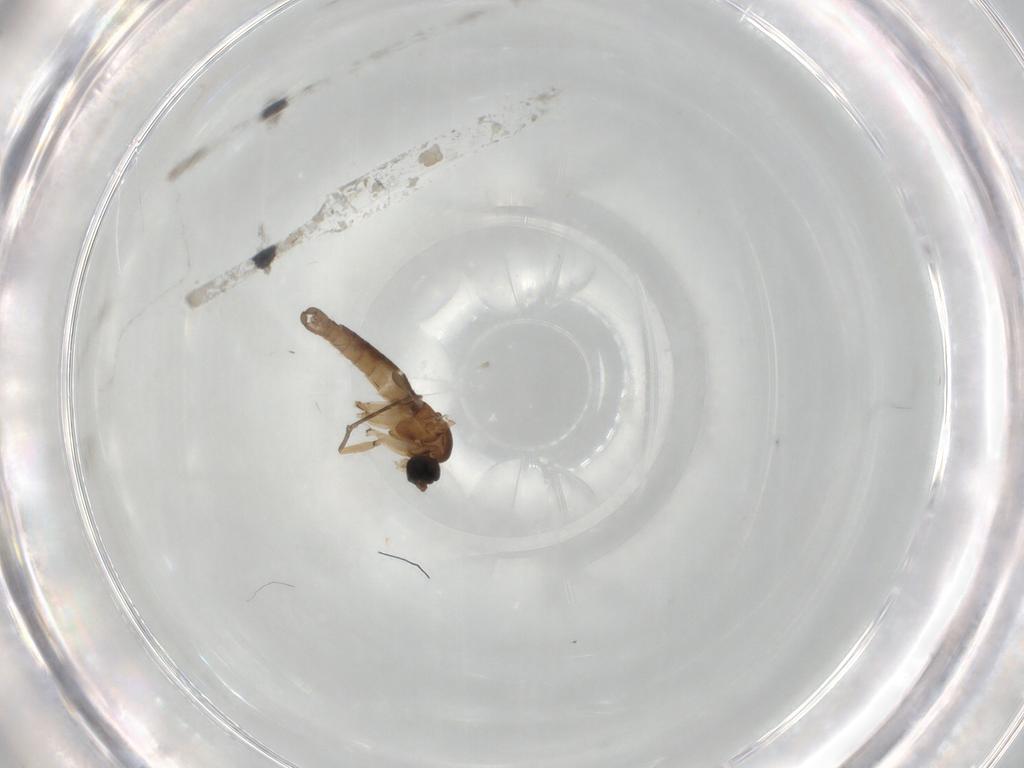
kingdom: Animalia
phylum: Arthropoda
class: Insecta
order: Diptera
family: Sciaridae
